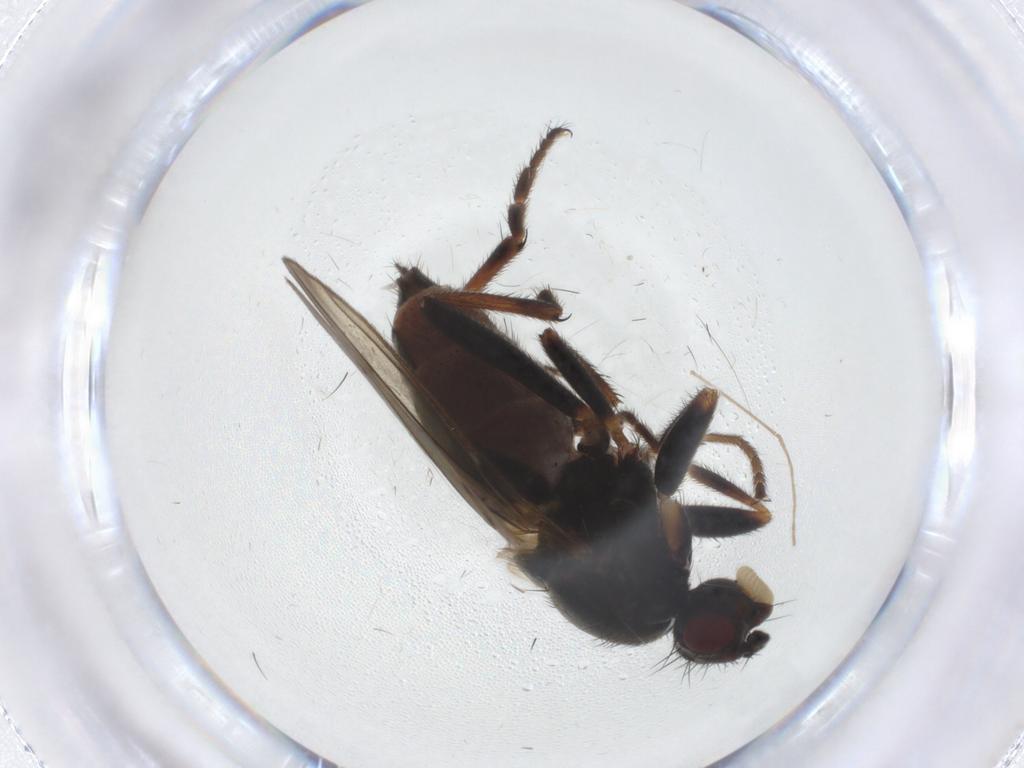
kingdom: Animalia
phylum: Arthropoda
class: Insecta
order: Diptera
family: Sphaeroceridae
